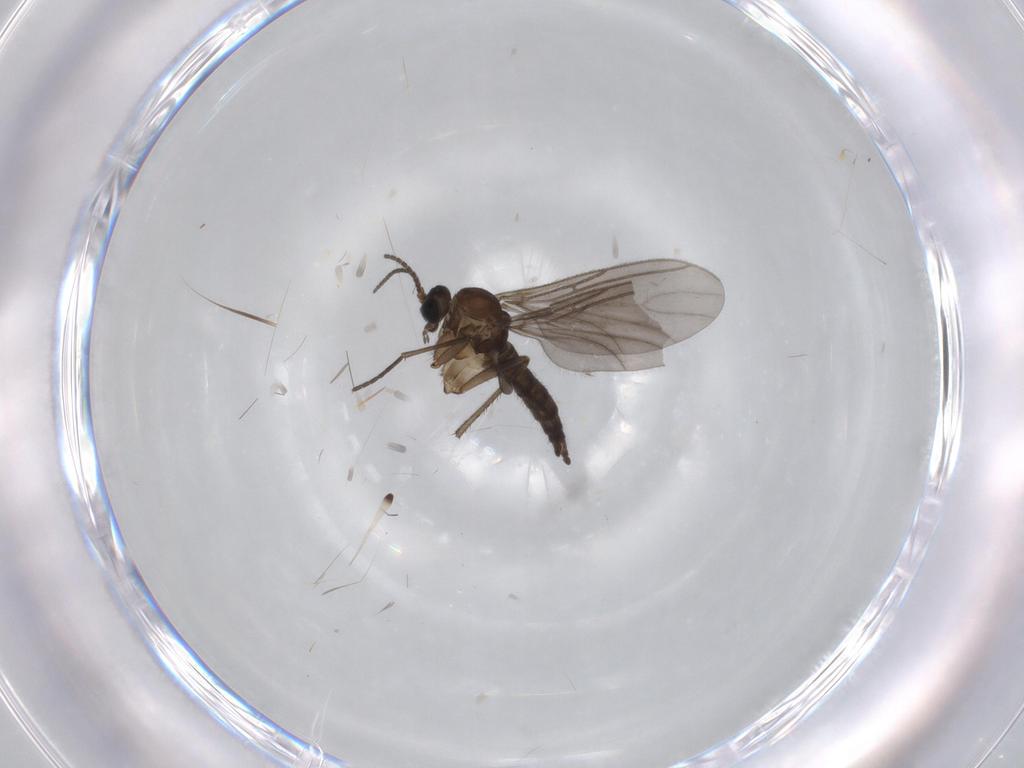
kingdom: Animalia
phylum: Arthropoda
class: Insecta
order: Diptera
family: Sciaridae
